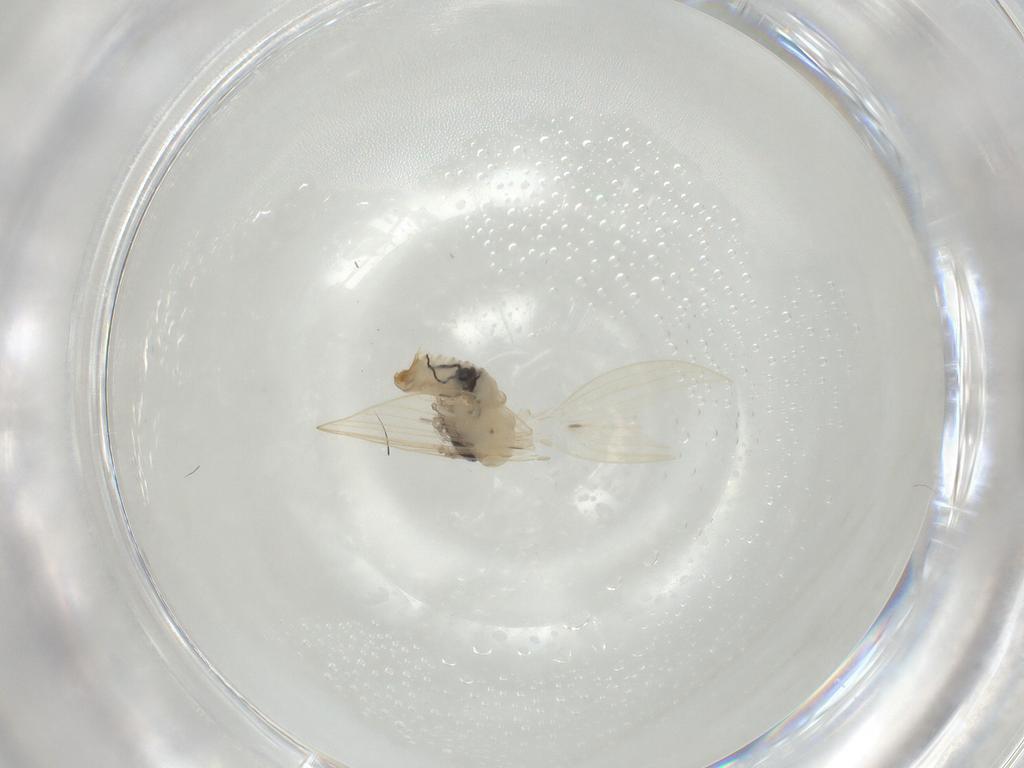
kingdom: Animalia
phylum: Arthropoda
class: Insecta
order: Diptera
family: Psychodidae
